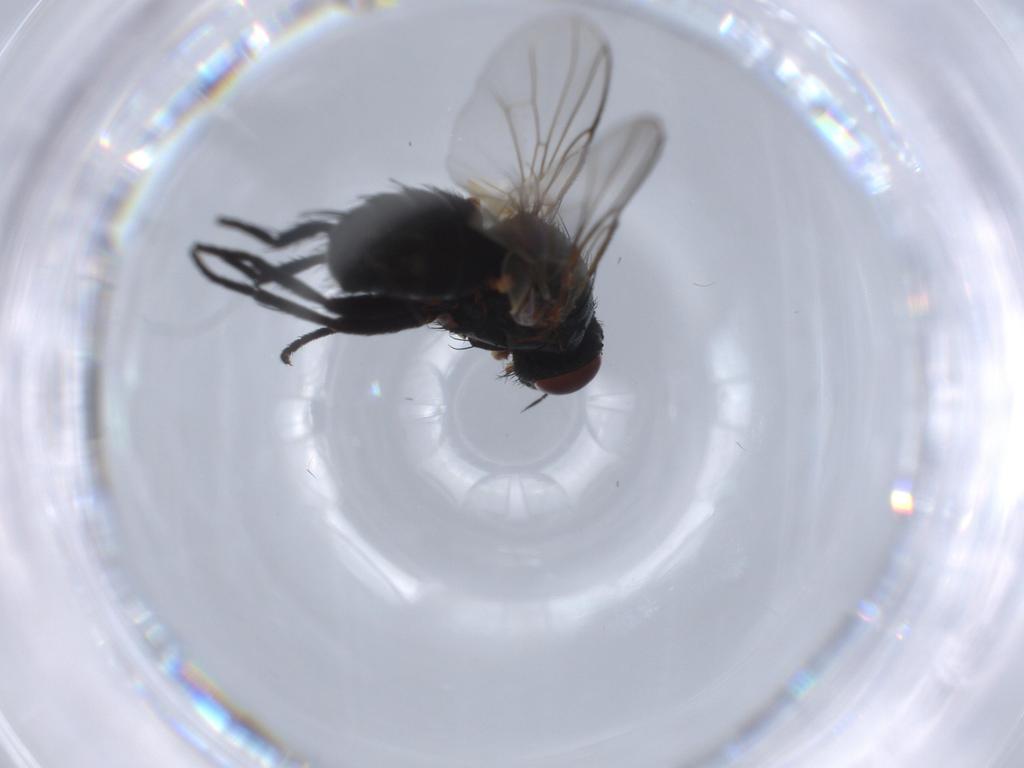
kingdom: Animalia
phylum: Arthropoda
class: Insecta
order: Diptera
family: Tachinidae
